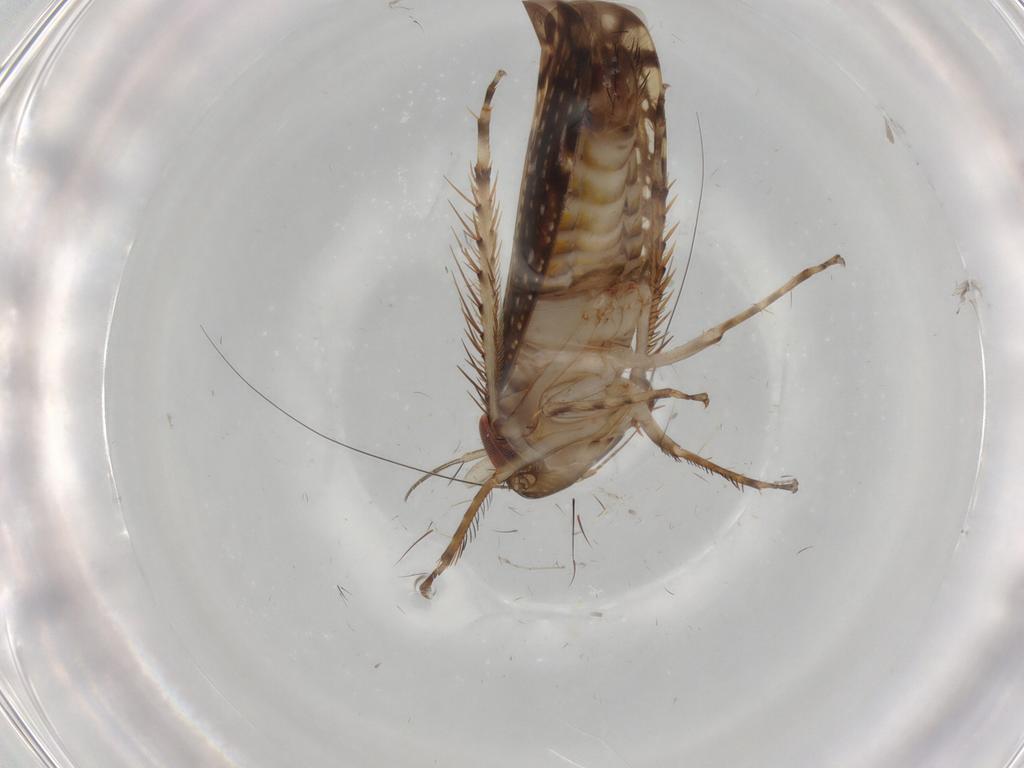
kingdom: Animalia
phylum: Arthropoda
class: Insecta
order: Hemiptera
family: Cicadellidae
